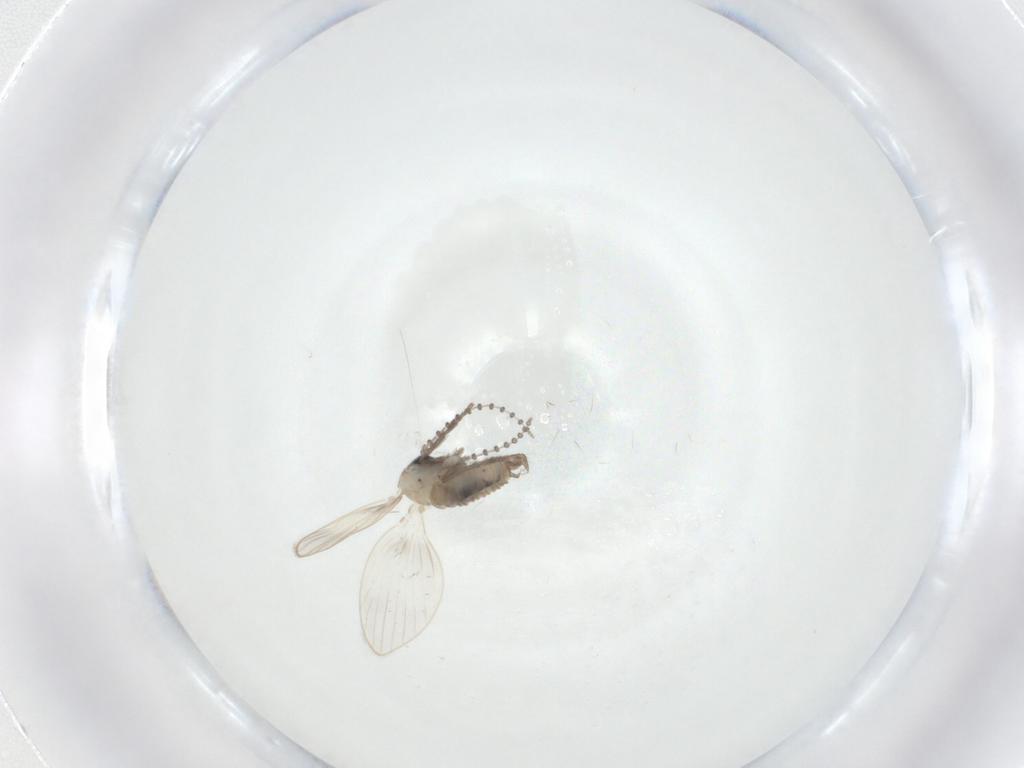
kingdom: Animalia
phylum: Arthropoda
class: Insecta
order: Diptera
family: Psychodidae
